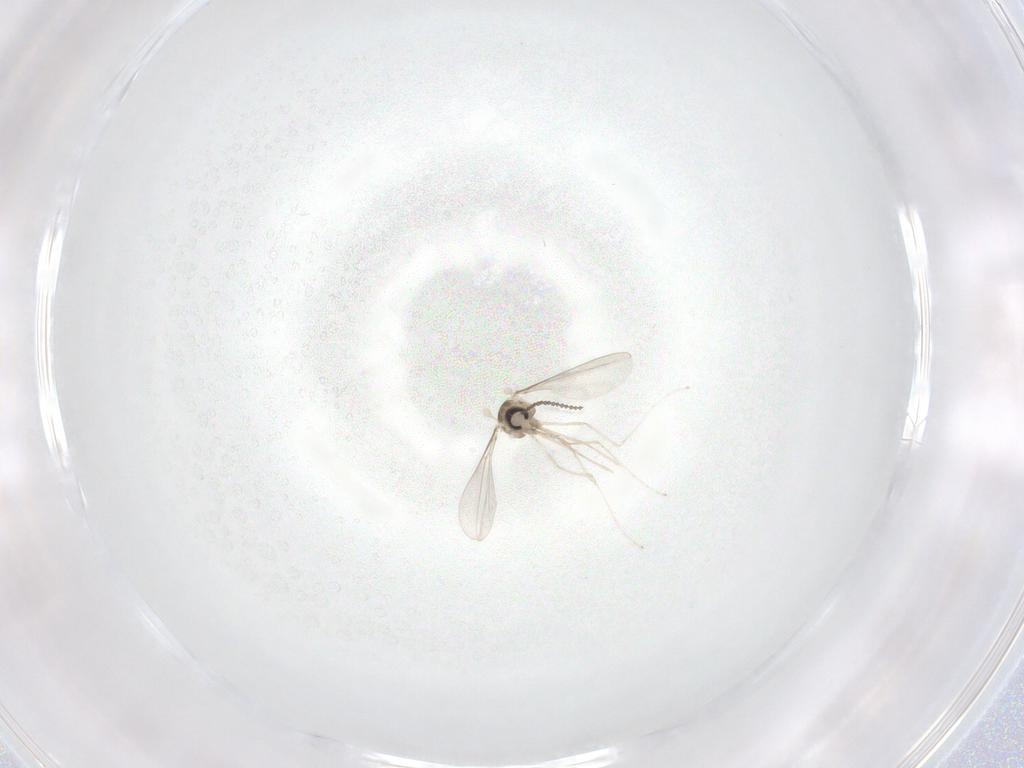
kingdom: Animalia
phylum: Arthropoda
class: Insecta
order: Diptera
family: Cecidomyiidae
